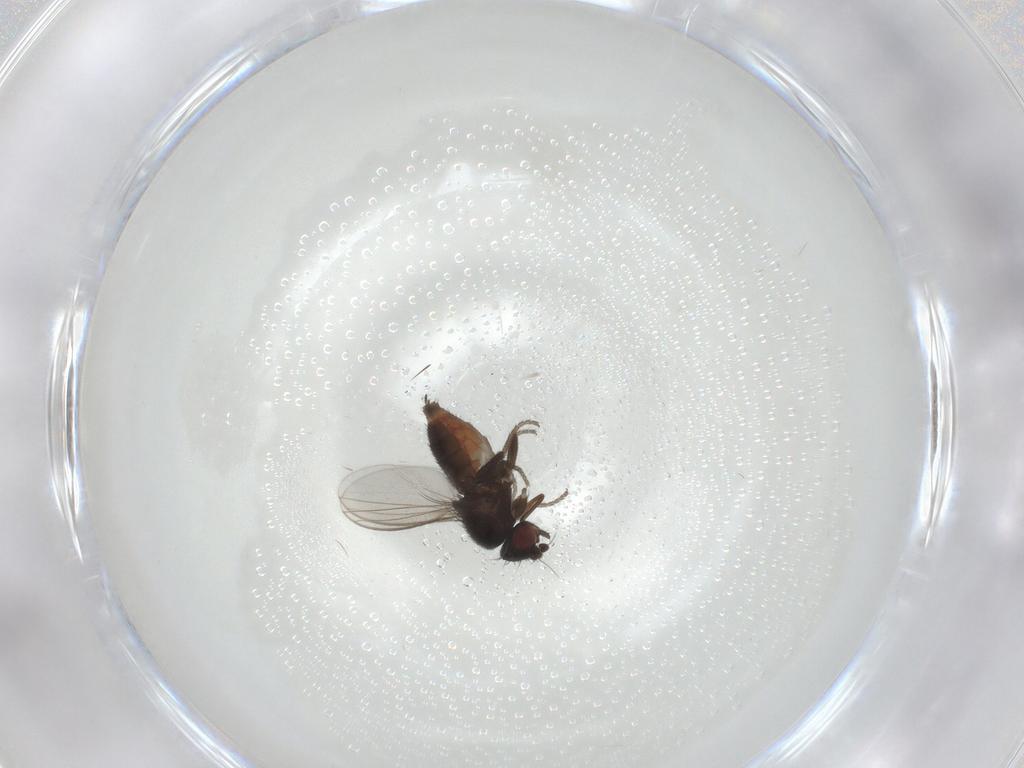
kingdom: Animalia
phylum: Arthropoda
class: Insecta
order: Diptera
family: Milichiidae
